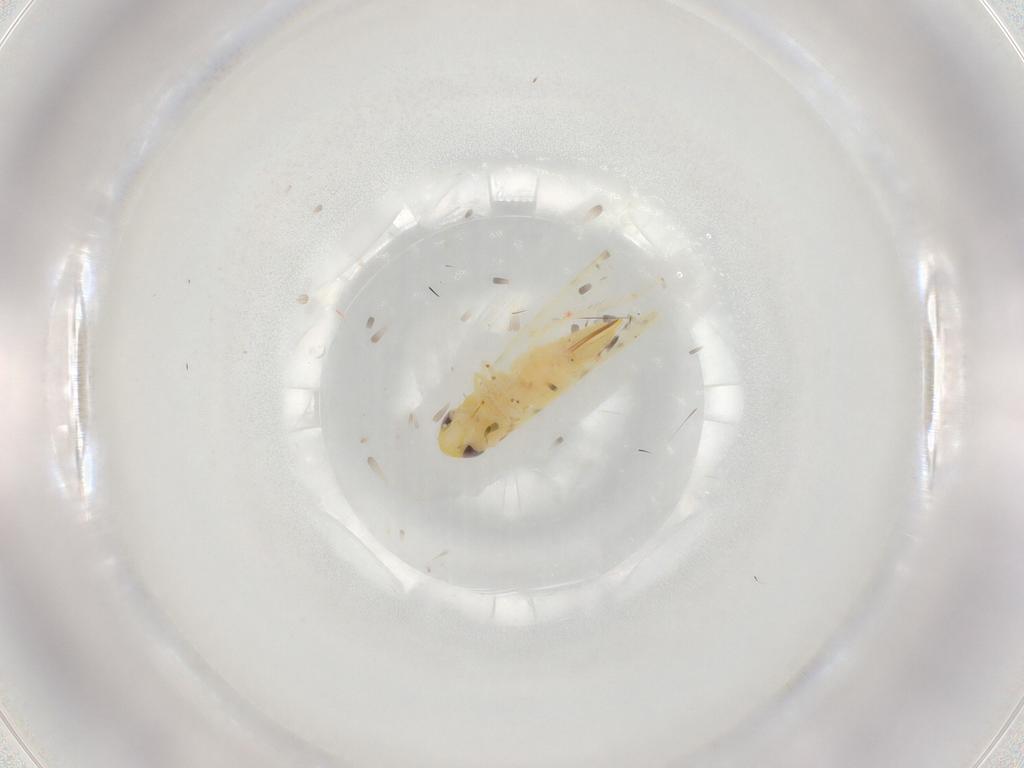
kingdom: Animalia
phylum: Arthropoda
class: Insecta
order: Hemiptera
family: Cicadellidae
